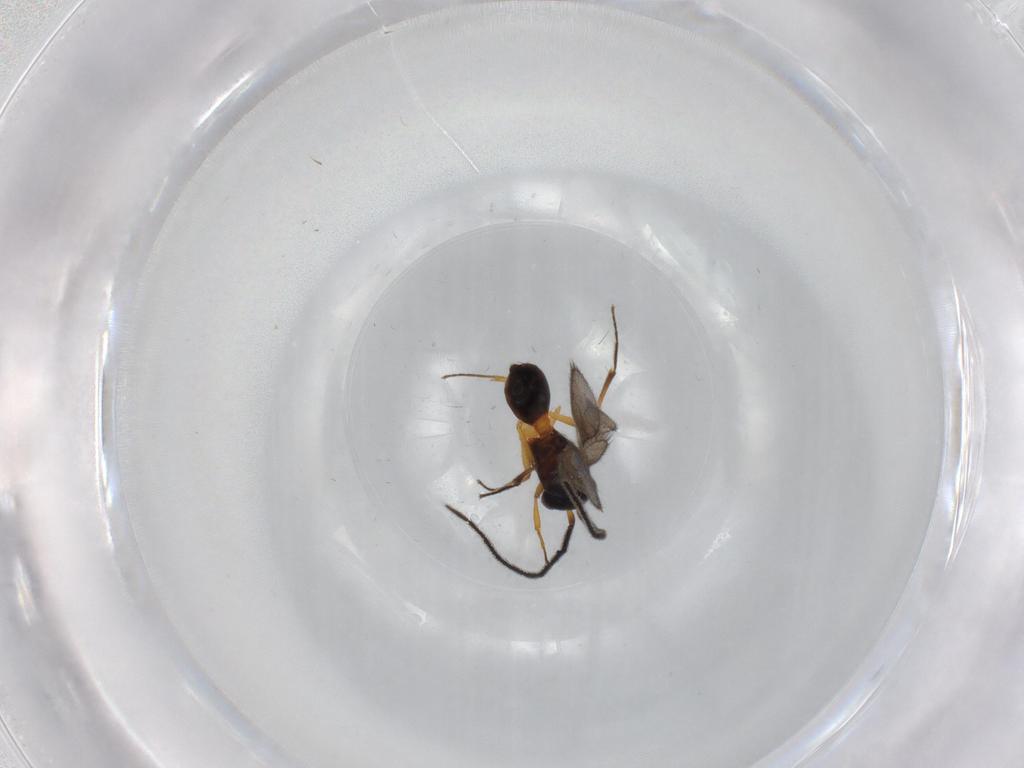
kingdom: Animalia
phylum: Arthropoda
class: Insecta
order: Hymenoptera
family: Scelionidae
